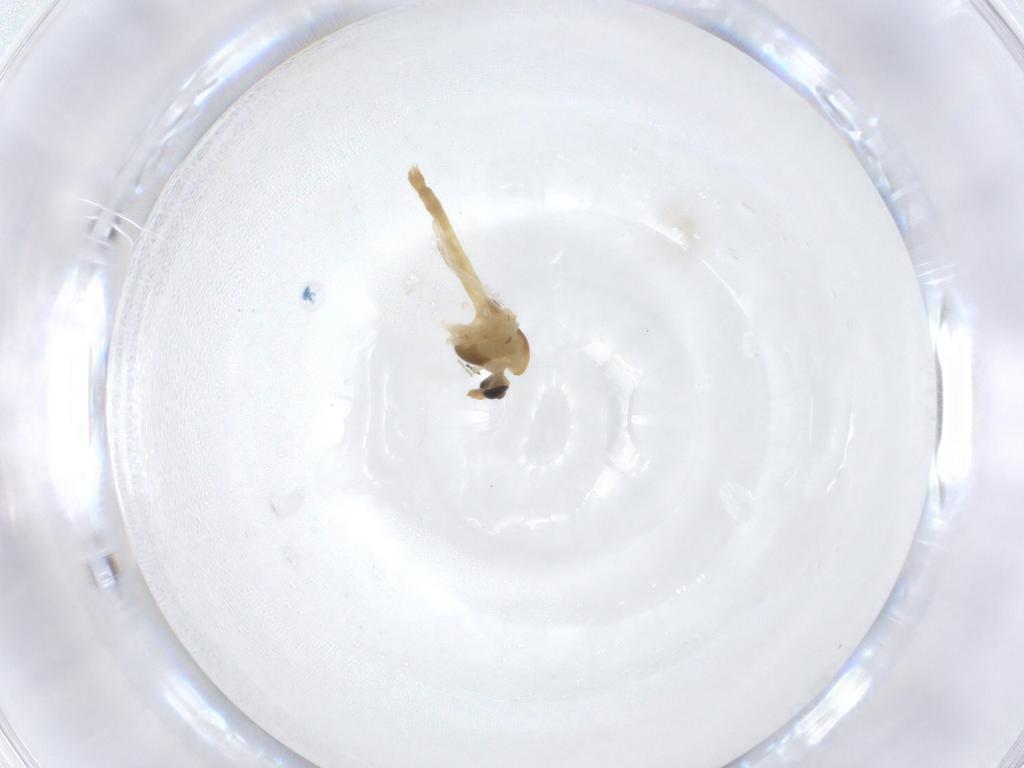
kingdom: Animalia
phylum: Arthropoda
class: Insecta
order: Diptera
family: Chironomidae
